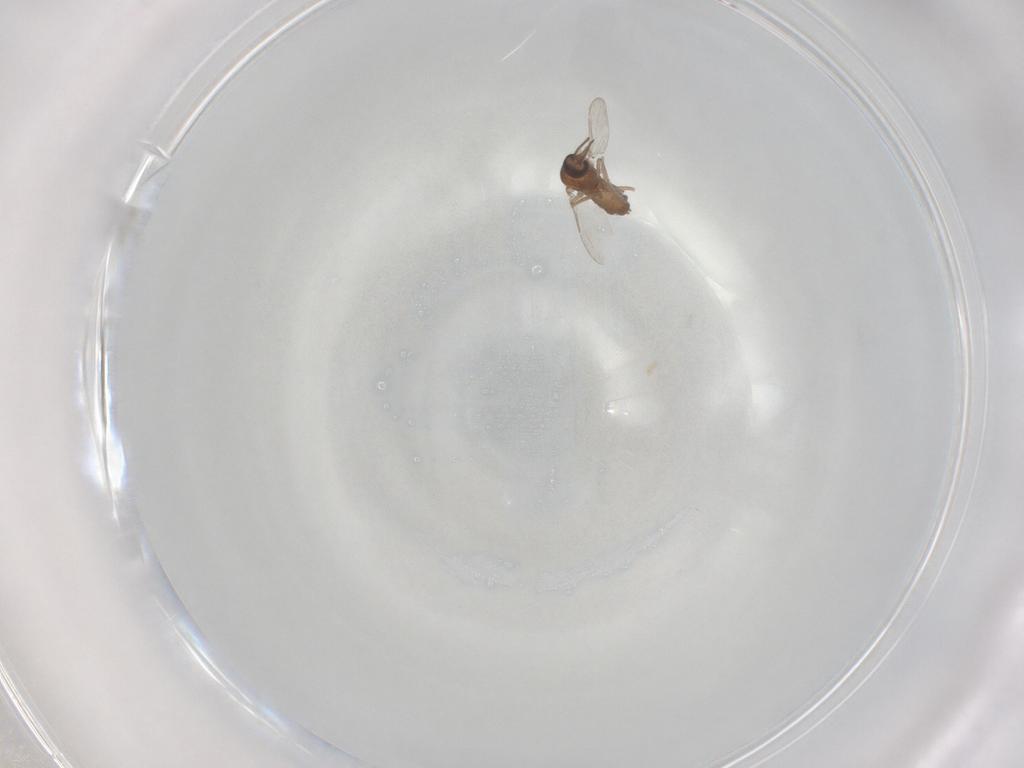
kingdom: Animalia
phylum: Arthropoda
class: Insecta
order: Diptera
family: Ceratopogonidae
